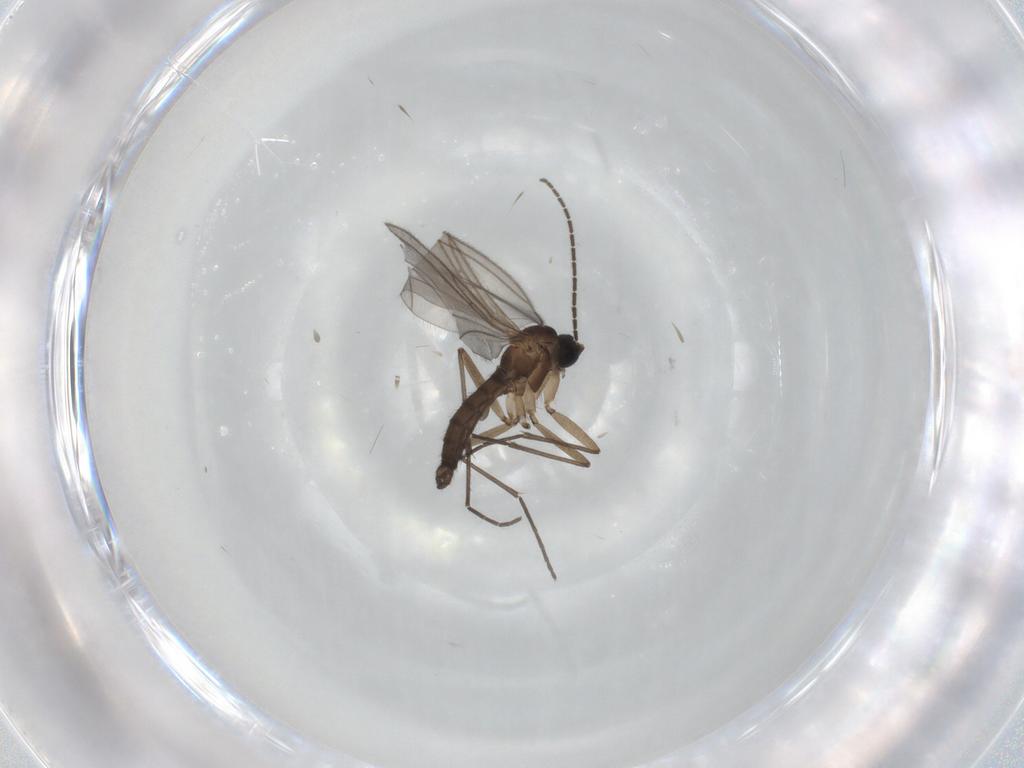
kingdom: Animalia
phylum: Arthropoda
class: Insecta
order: Diptera
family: Sciaridae
